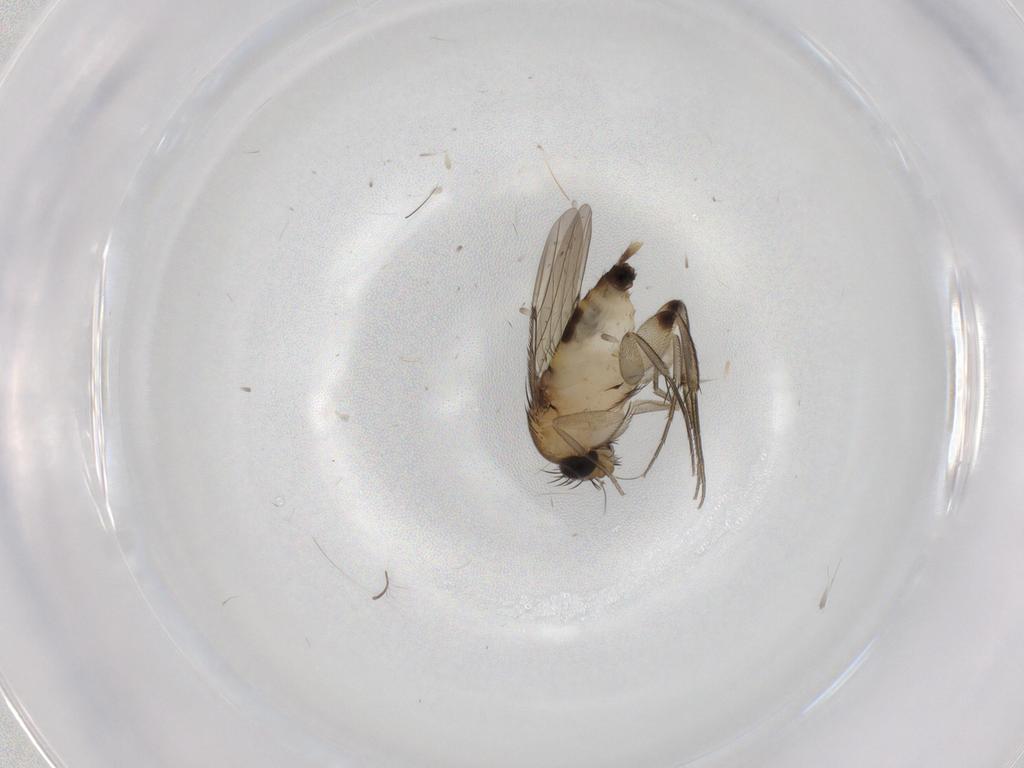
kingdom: Animalia
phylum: Arthropoda
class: Insecta
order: Diptera
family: Phoridae
